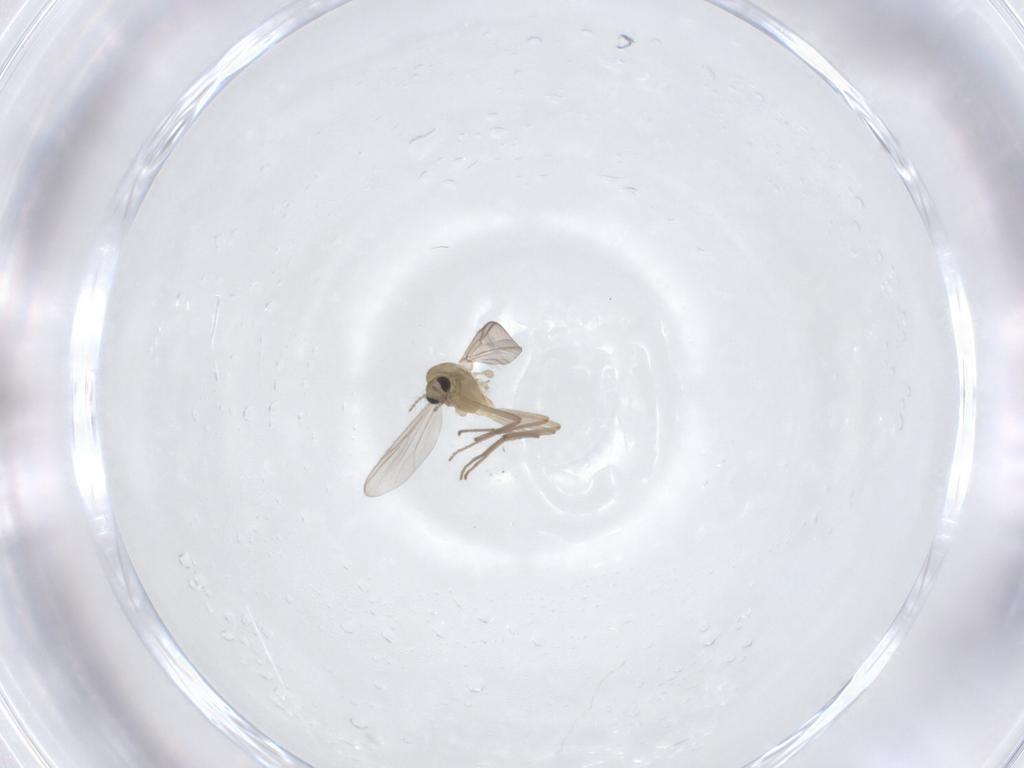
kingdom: Animalia
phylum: Arthropoda
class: Insecta
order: Diptera
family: Chironomidae
